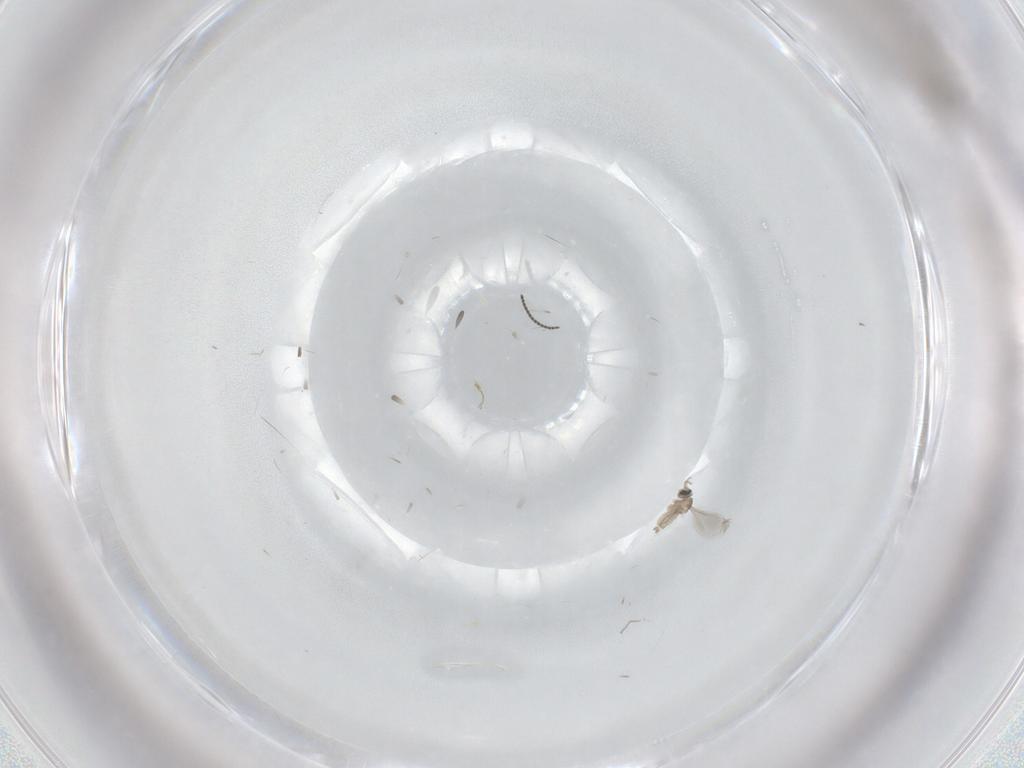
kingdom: Animalia
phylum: Arthropoda
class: Insecta
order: Diptera
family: Cecidomyiidae
